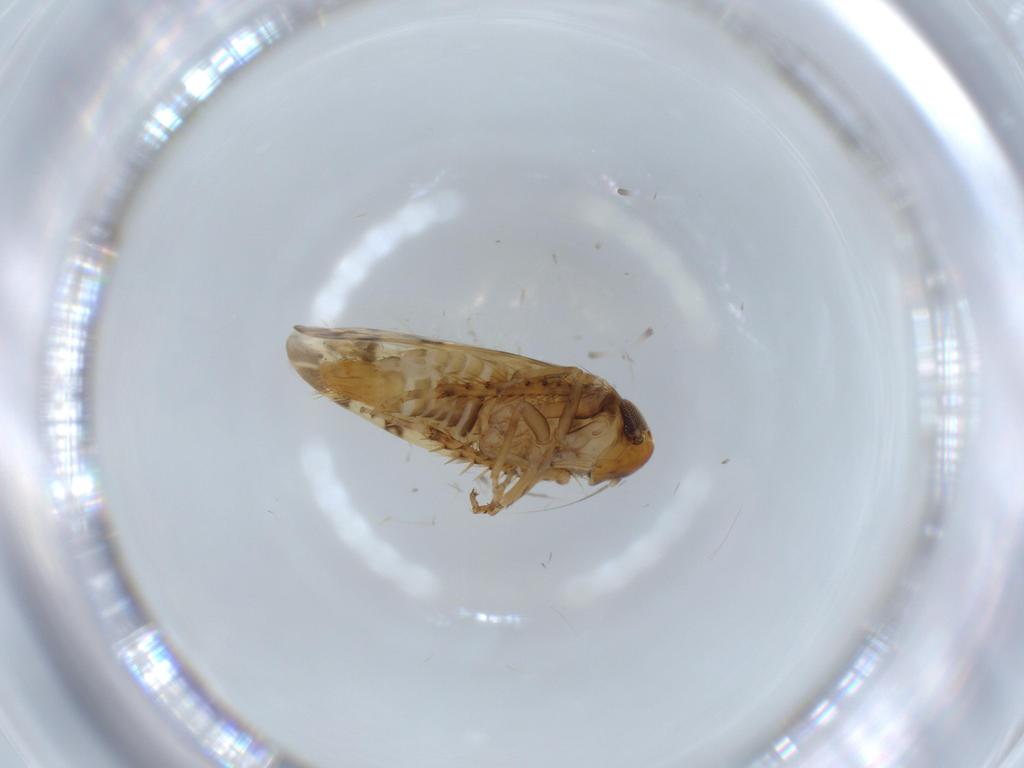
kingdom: Animalia
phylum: Arthropoda
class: Insecta
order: Hemiptera
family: Cicadellidae
